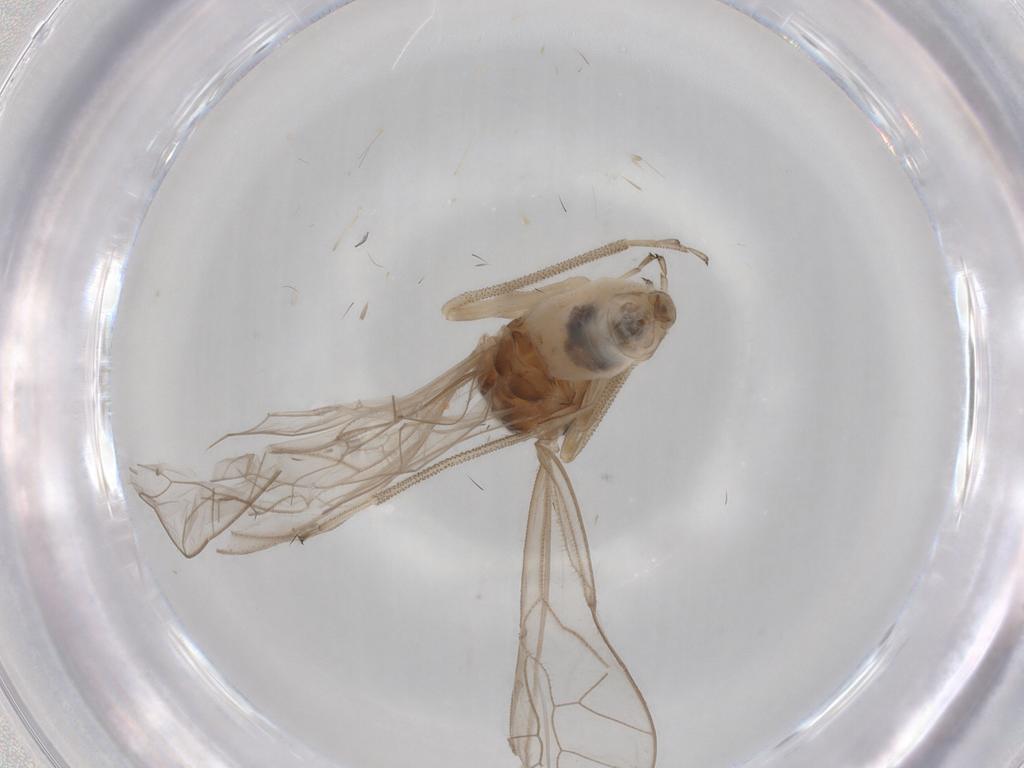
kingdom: Animalia
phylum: Arthropoda
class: Insecta
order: Psocodea
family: Stenopsocidae
